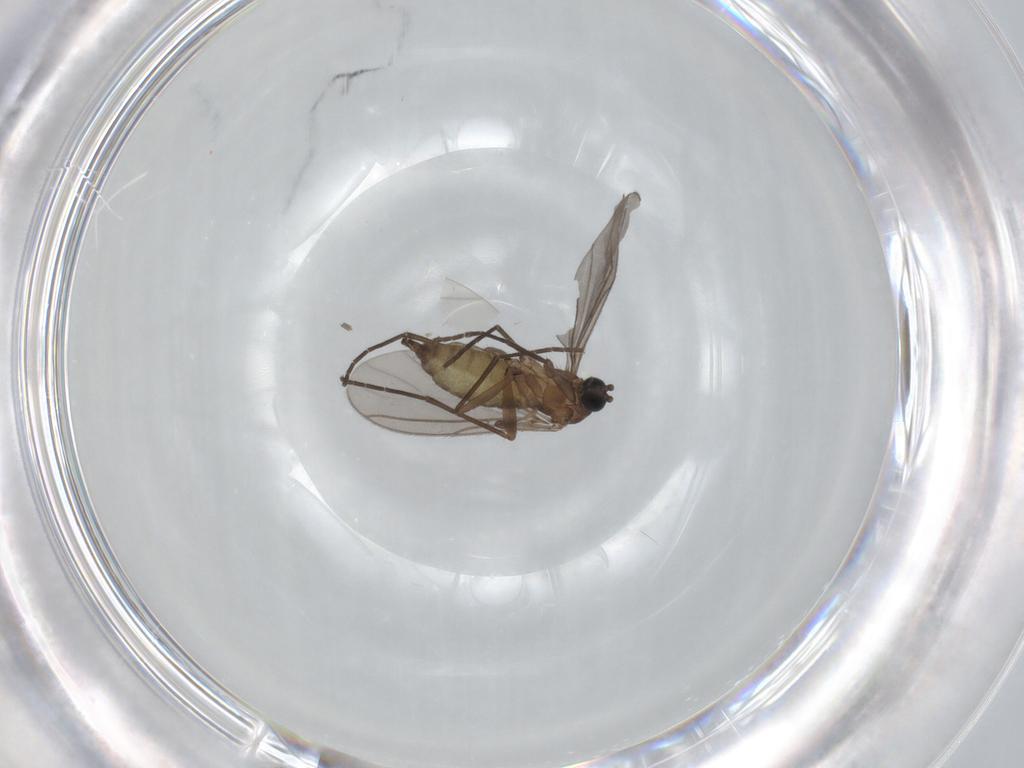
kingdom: Animalia
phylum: Arthropoda
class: Insecta
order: Diptera
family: Sciaridae
